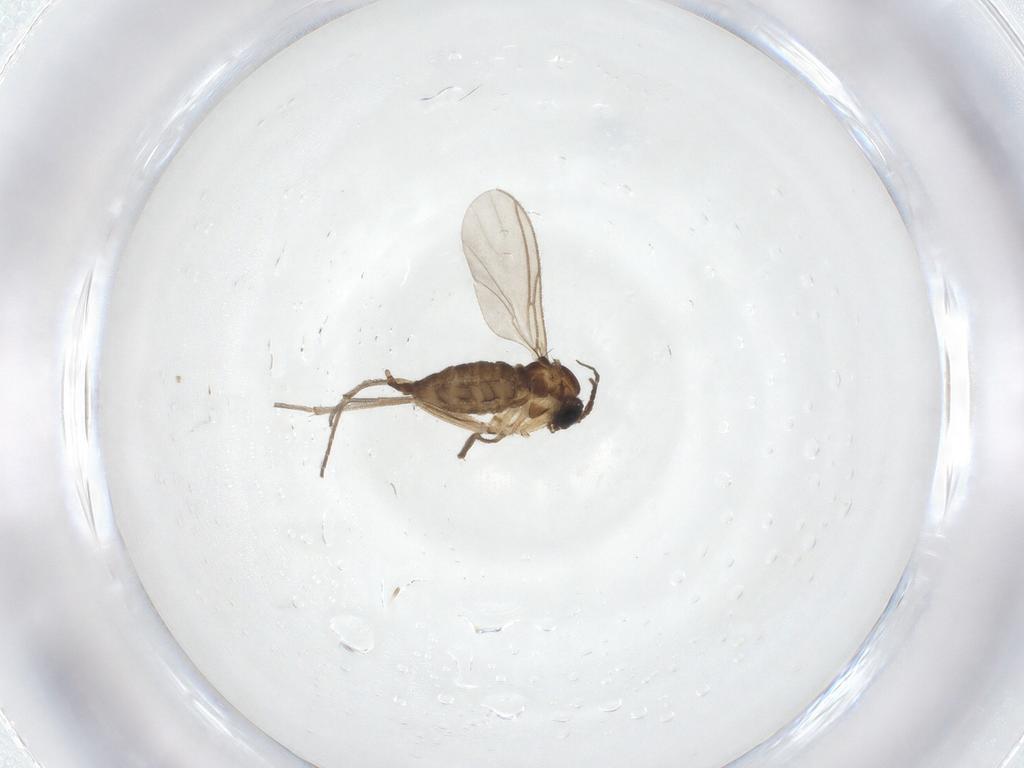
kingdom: Animalia
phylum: Arthropoda
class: Insecta
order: Diptera
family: Sciaridae
